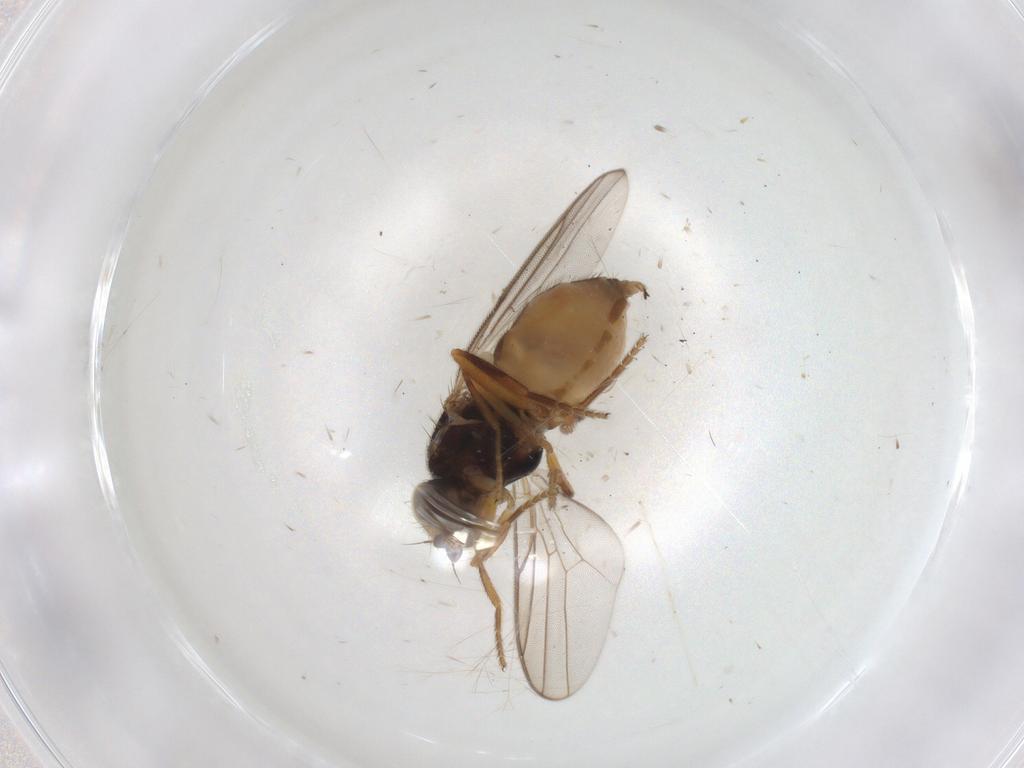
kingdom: Animalia
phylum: Arthropoda
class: Insecta
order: Diptera
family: Chloropidae
